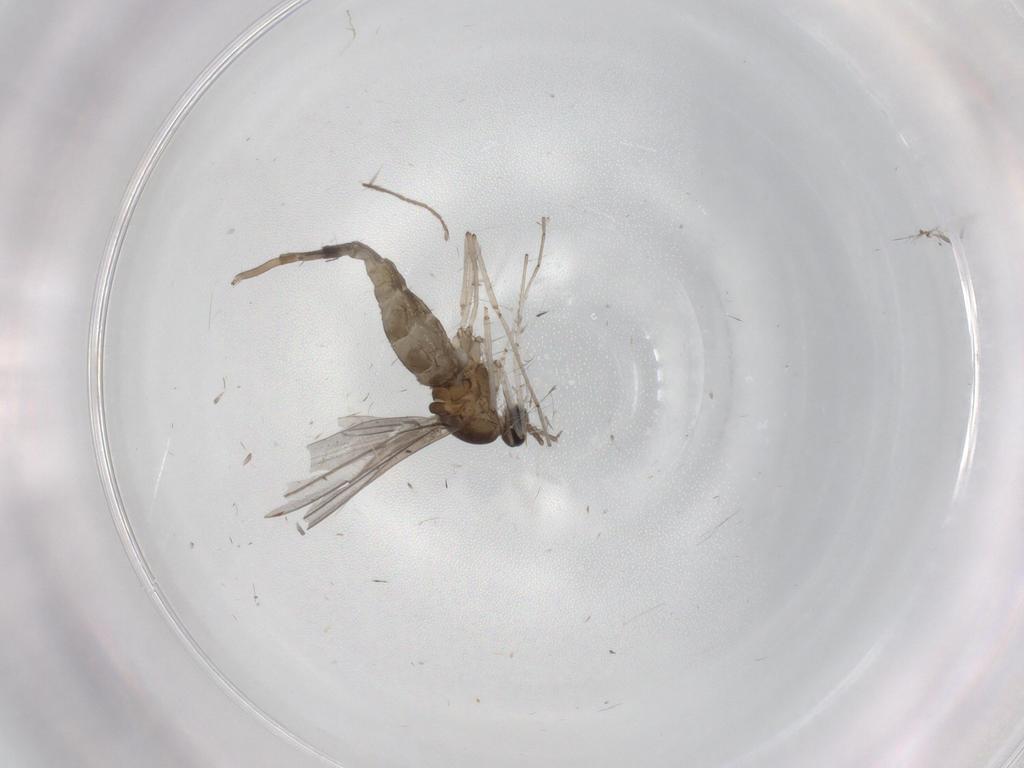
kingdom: Animalia
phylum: Arthropoda
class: Insecta
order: Diptera
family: Chironomidae
